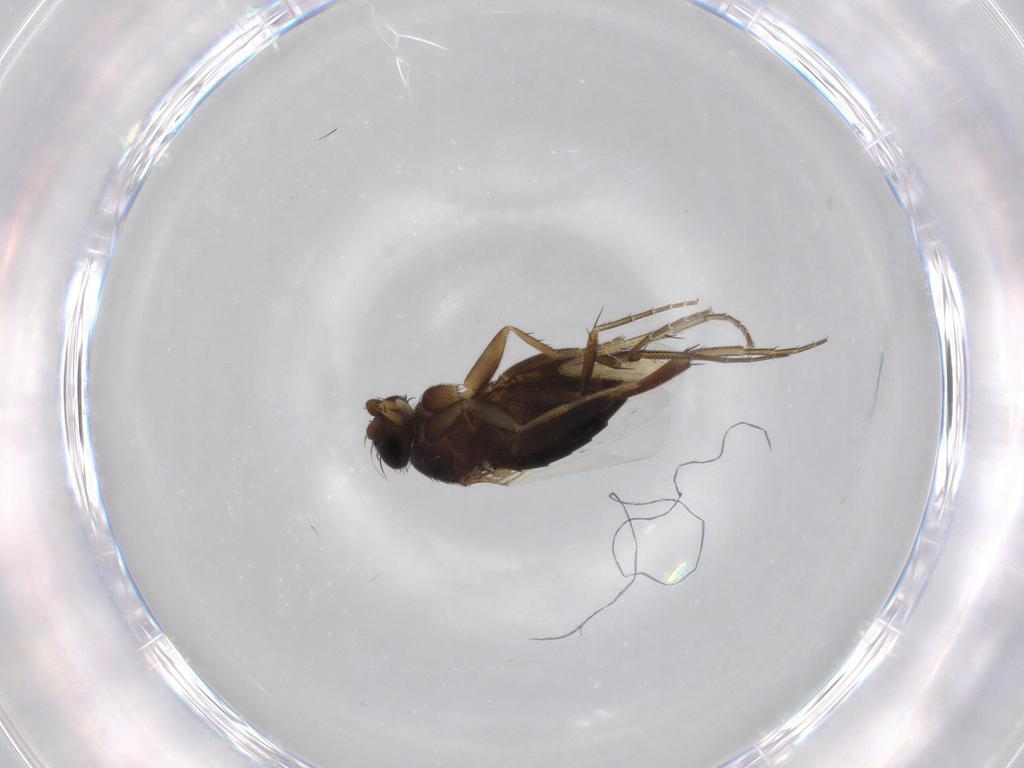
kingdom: Animalia
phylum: Arthropoda
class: Insecta
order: Diptera
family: Phoridae
